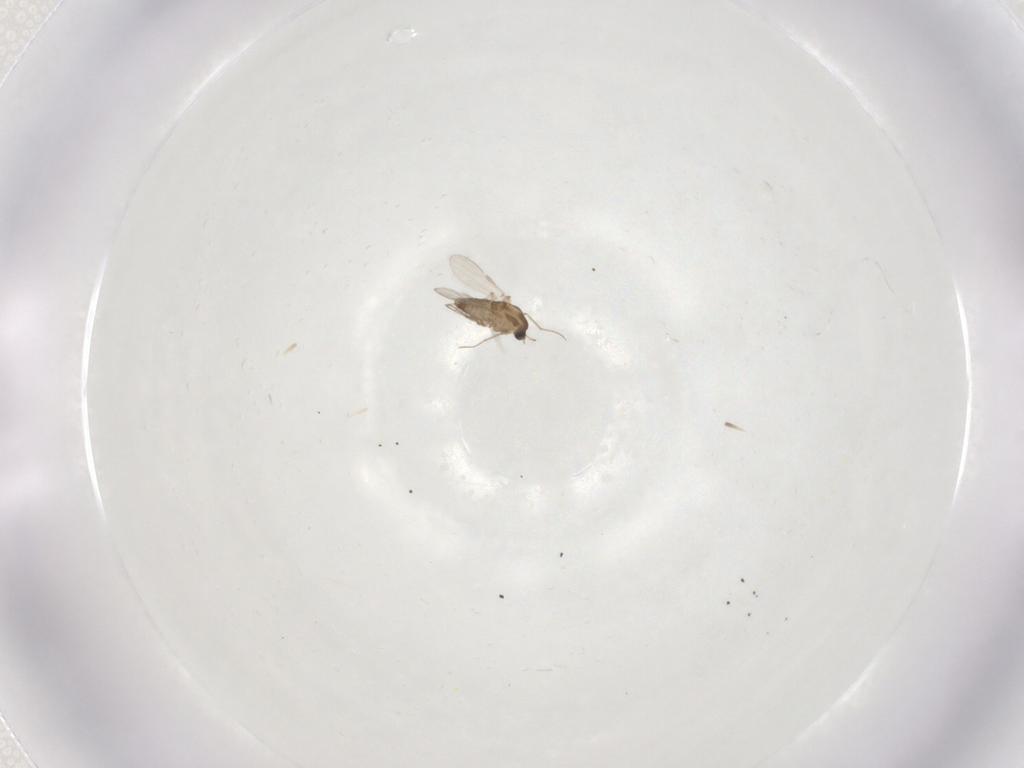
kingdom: Animalia
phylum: Arthropoda
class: Insecta
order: Diptera
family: Chironomidae
